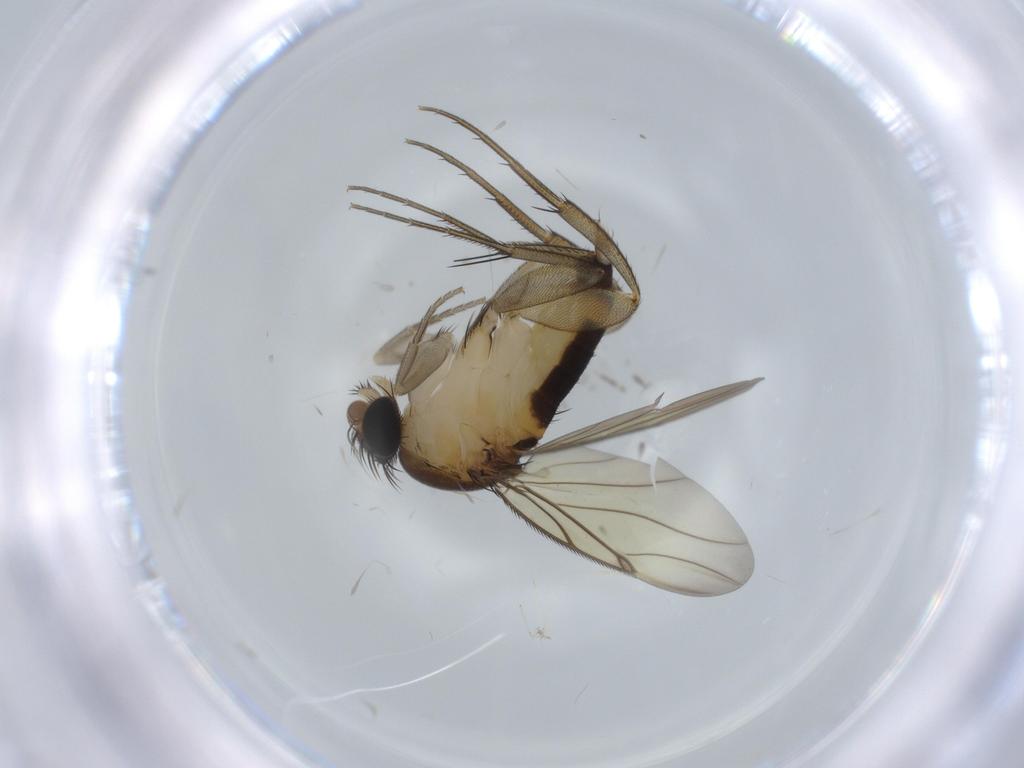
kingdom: Animalia
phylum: Arthropoda
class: Insecta
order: Diptera
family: Phoridae
